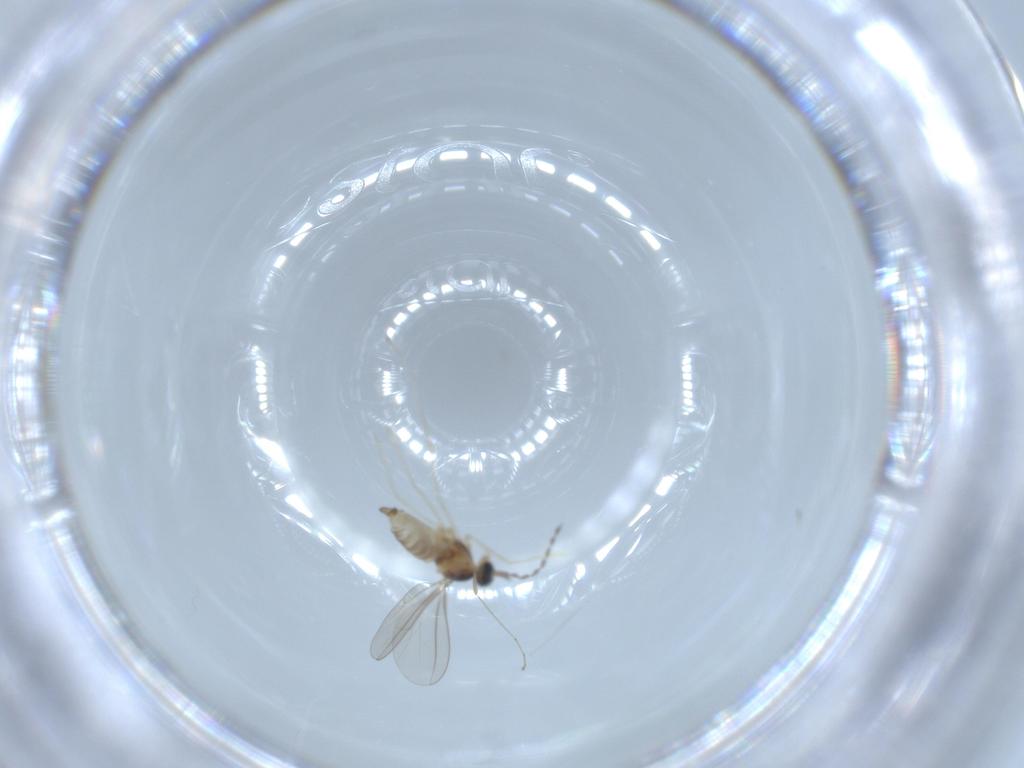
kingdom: Animalia
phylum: Arthropoda
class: Insecta
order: Diptera
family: Cecidomyiidae
